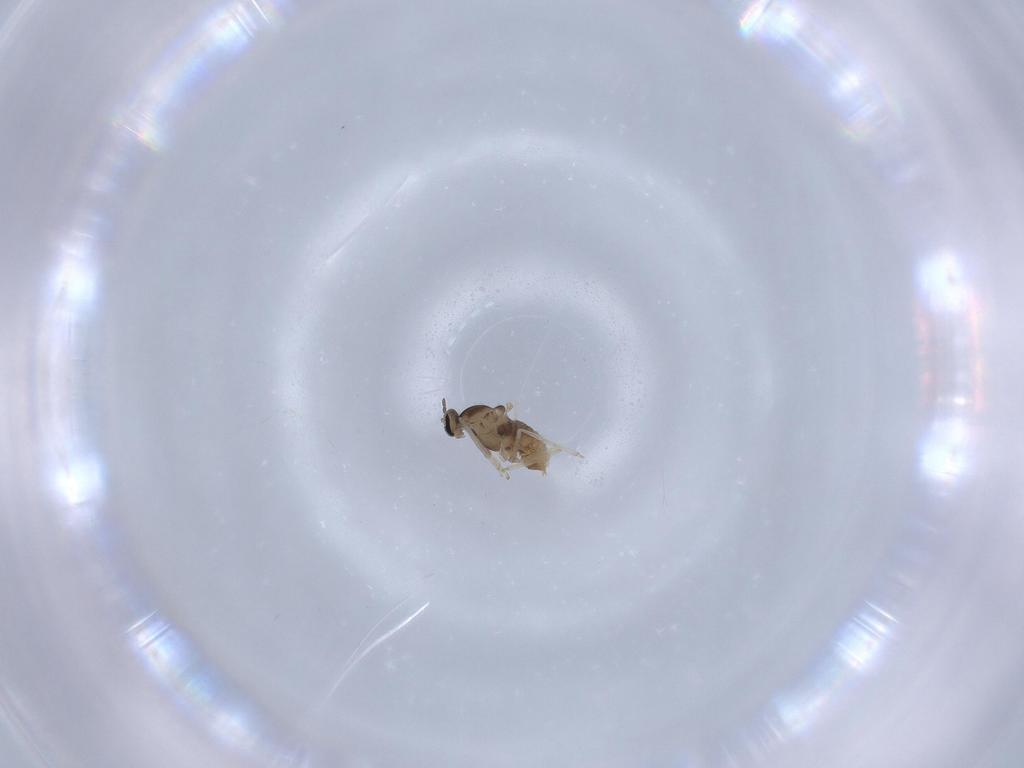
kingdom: Animalia
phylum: Arthropoda
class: Insecta
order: Diptera
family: Cecidomyiidae
